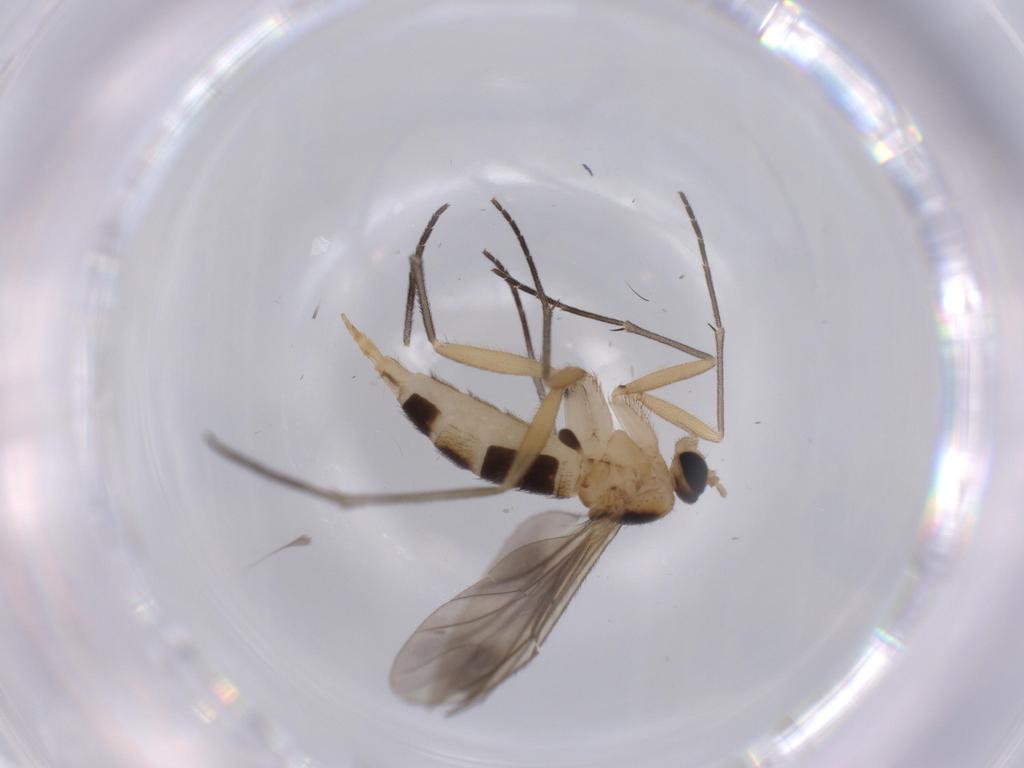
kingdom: Animalia
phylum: Arthropoda
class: Insecta
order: Diptera
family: Sciaridae
